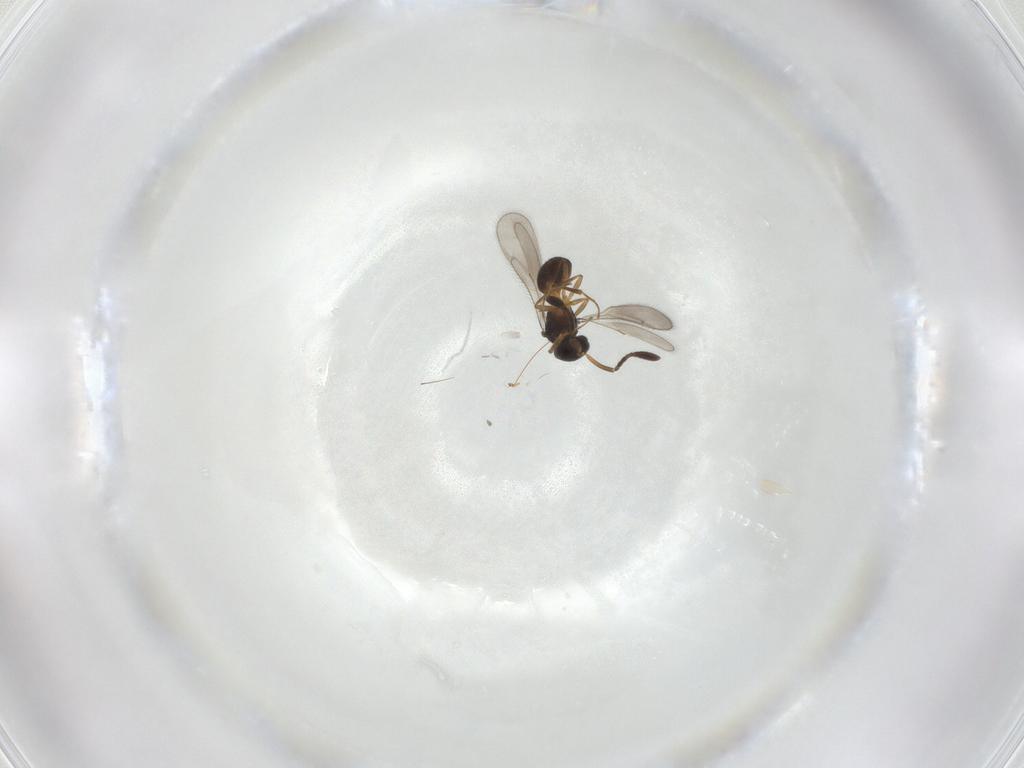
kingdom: Animalia
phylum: Arthropoda
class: Insecta
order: Hymenoptera
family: Scelionidae
